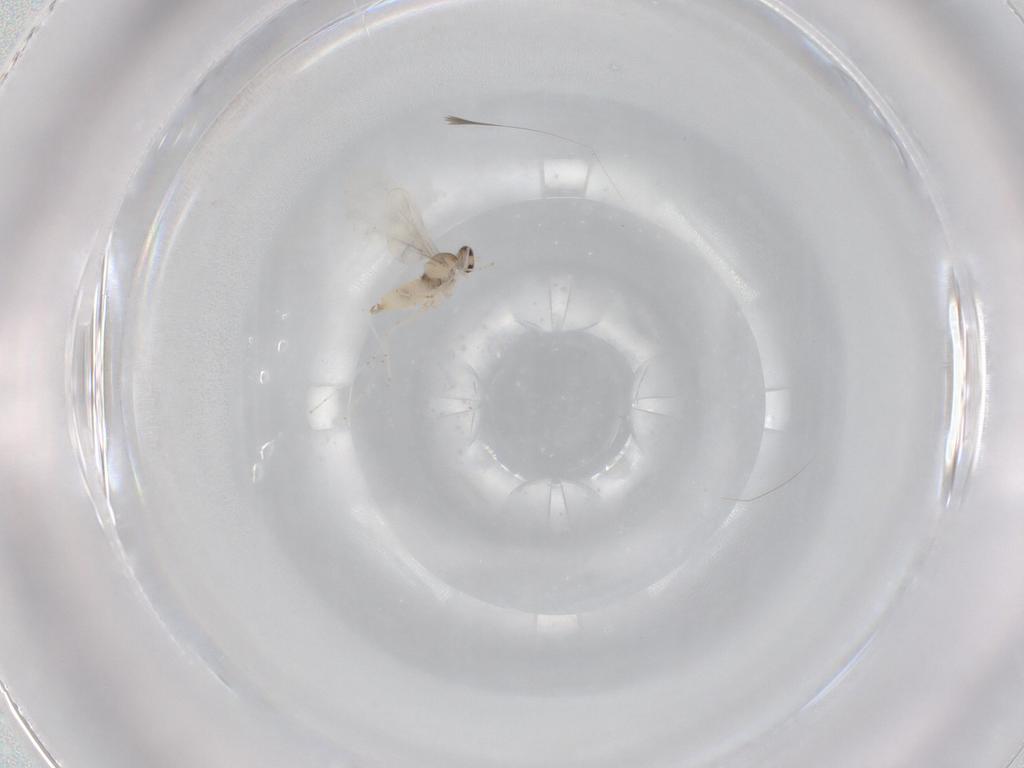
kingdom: Animalia
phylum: Arthropoda
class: Insecta
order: Diptera
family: Cecidomyiidae
